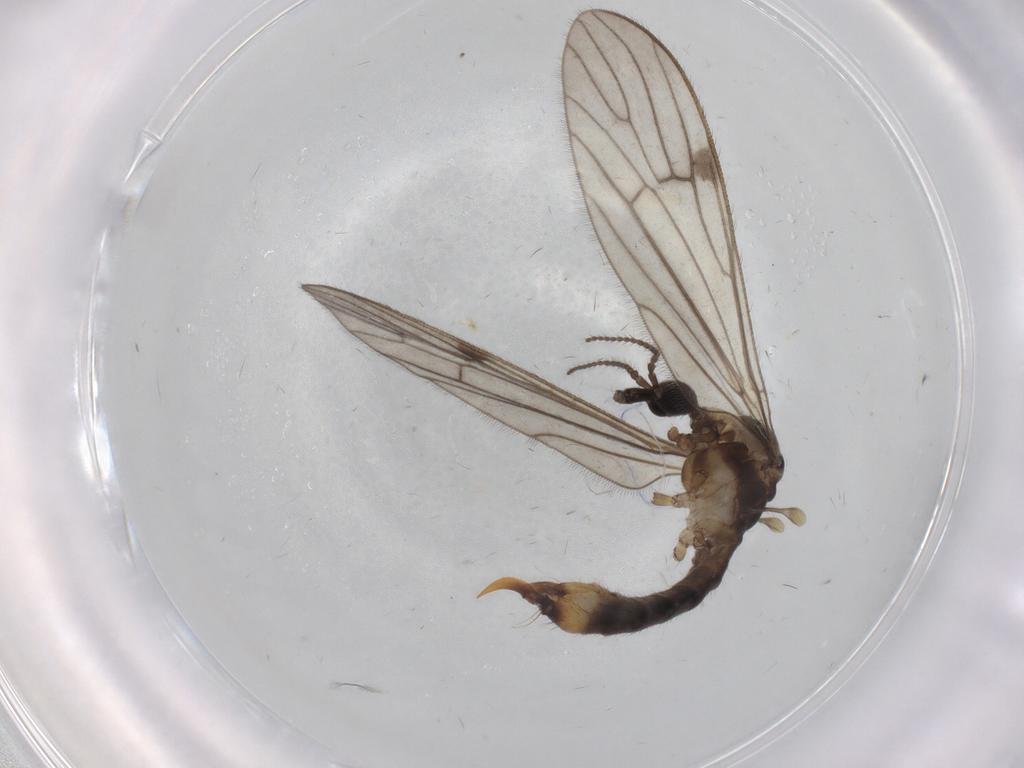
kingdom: Animalia
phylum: Arthropoda
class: Insecta
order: Diptera
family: Limoniidae
